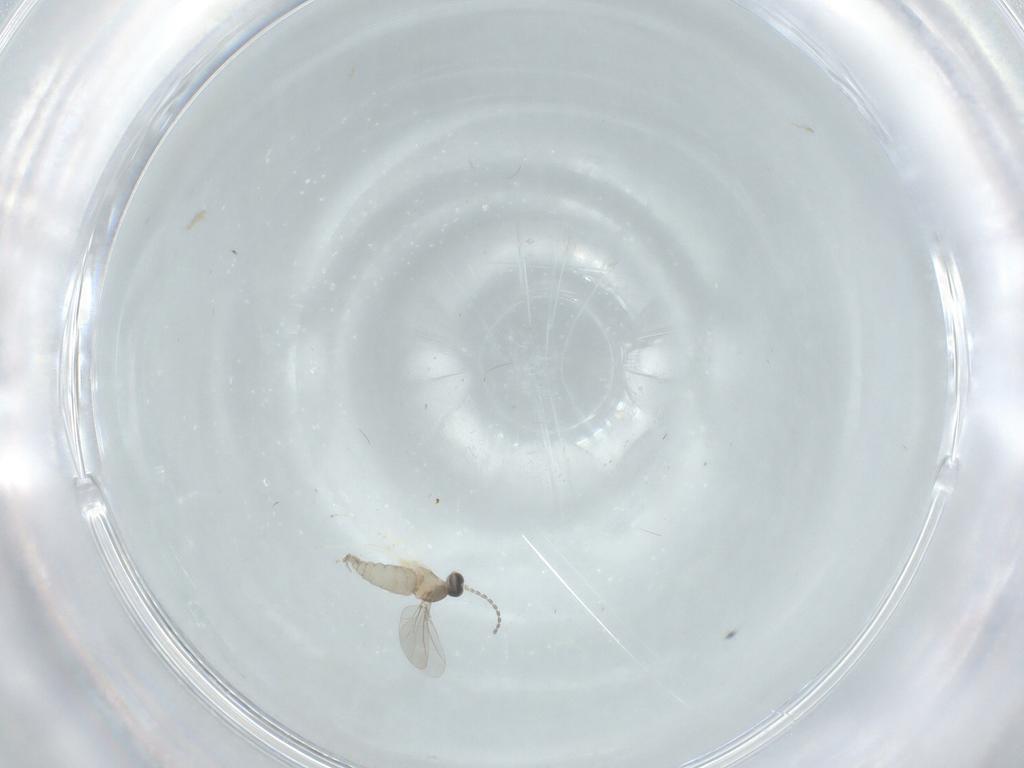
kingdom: Animalia
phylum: Arthropoda
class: Insecta
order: Diptera
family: Cecidomyiidae
